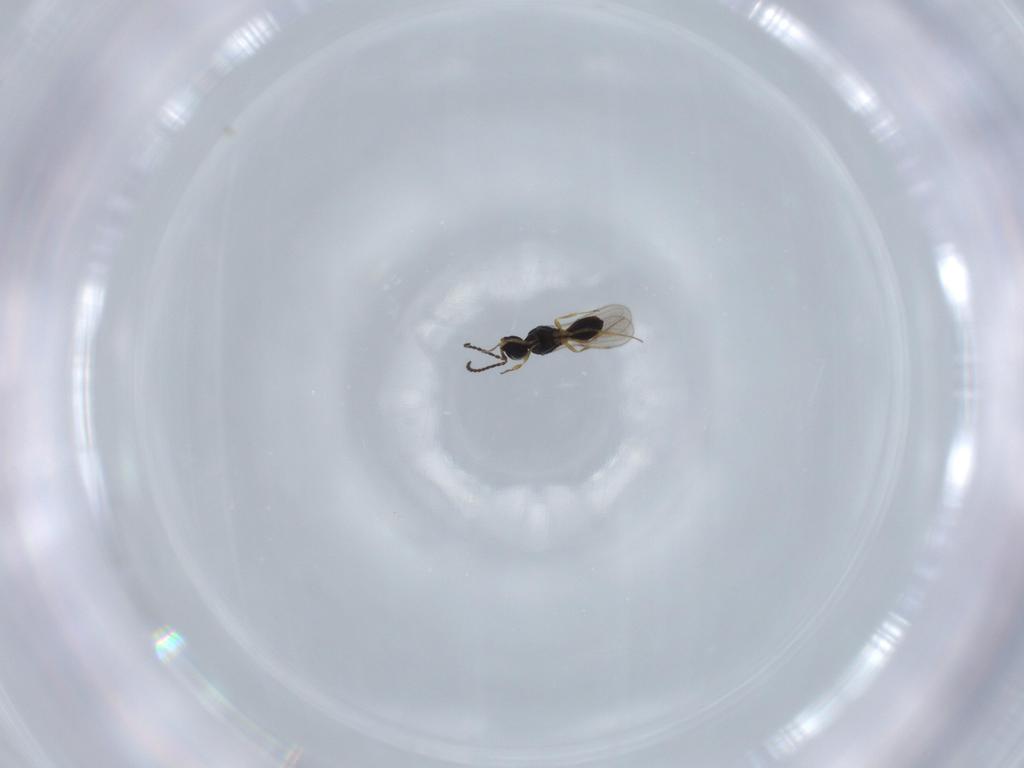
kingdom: Animalia
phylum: Arthropoda
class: Insecta
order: Hymenoptera
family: Scelionidae
